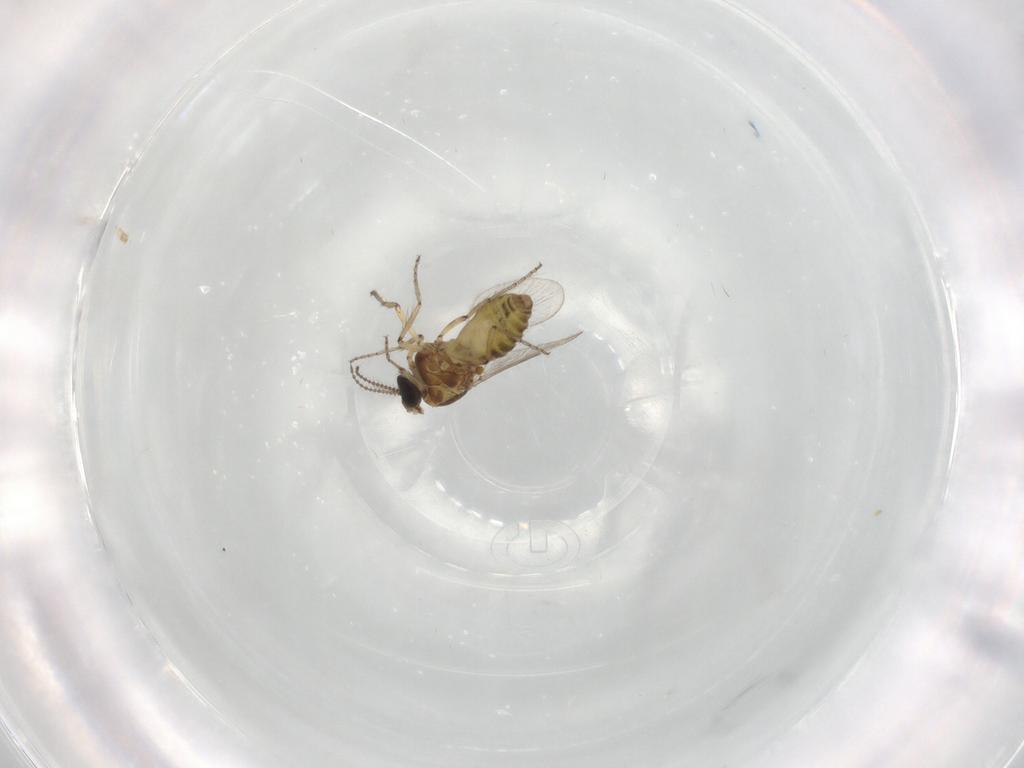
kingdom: Animalia
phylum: Arthropoda
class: Insecta
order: Diptera
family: Ceratopogonidae
